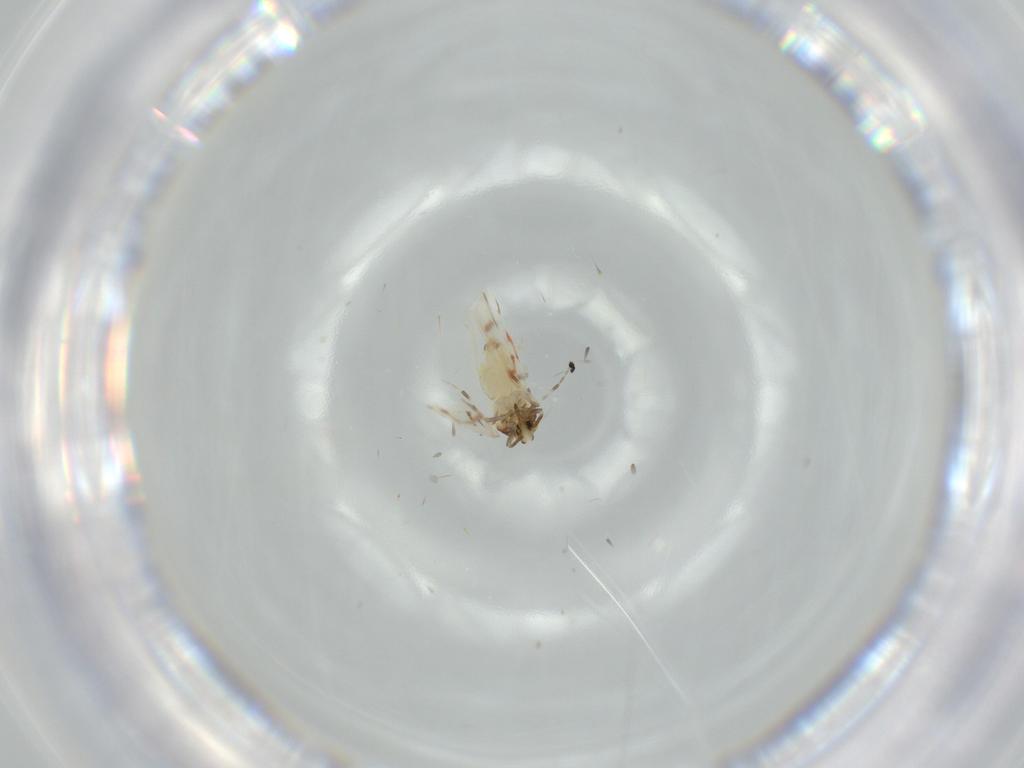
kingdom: Animalia
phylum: Arthropoda
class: Insecta
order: Hemiptera
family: Aleyrodidae
